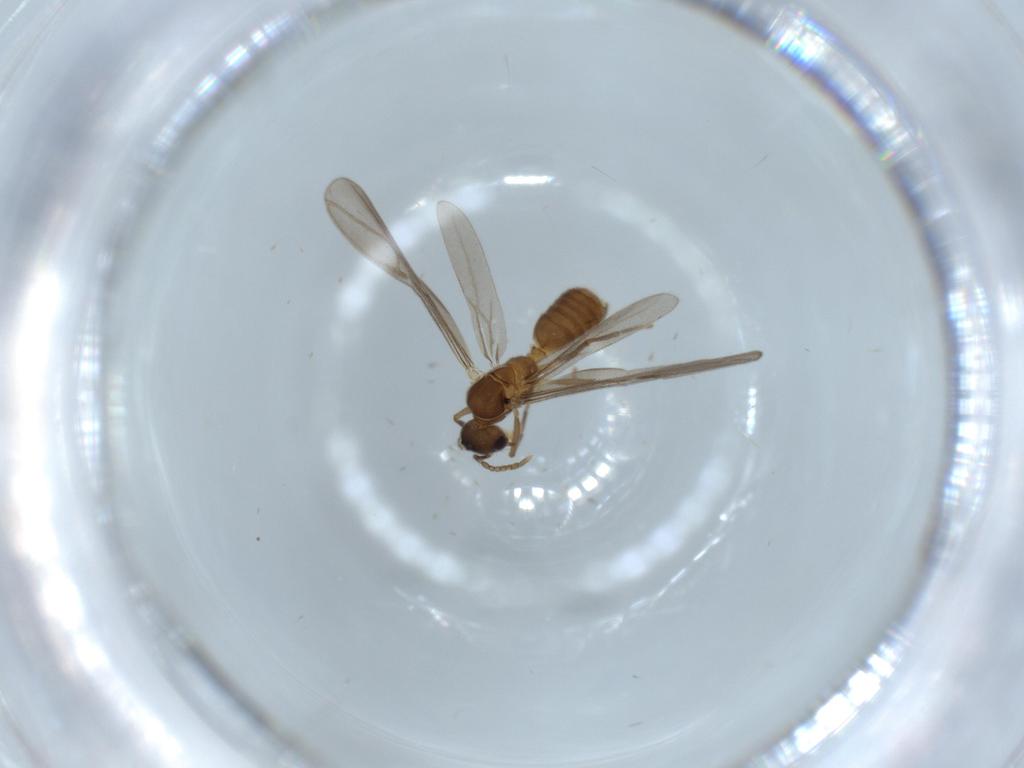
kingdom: Animalia
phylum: Arthropoda
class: Insecta
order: Hymenoptera
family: Formicidae
